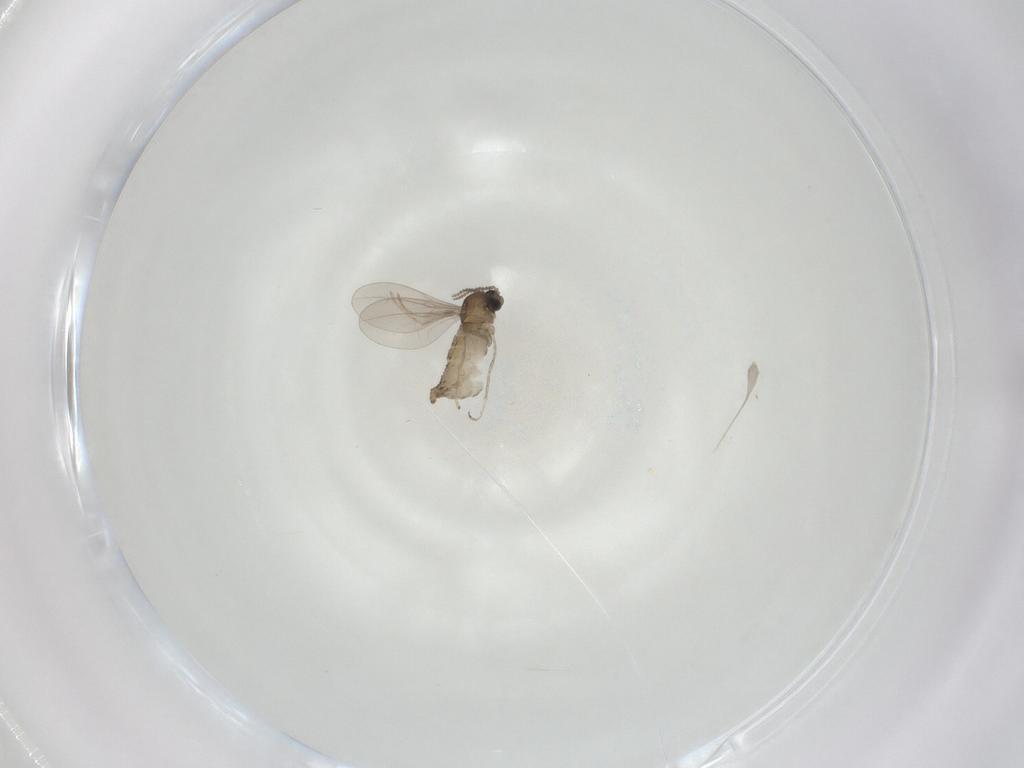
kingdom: Animalia
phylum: Arthropoda
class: Insecta
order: Diptera
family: Cecidomyiidae
